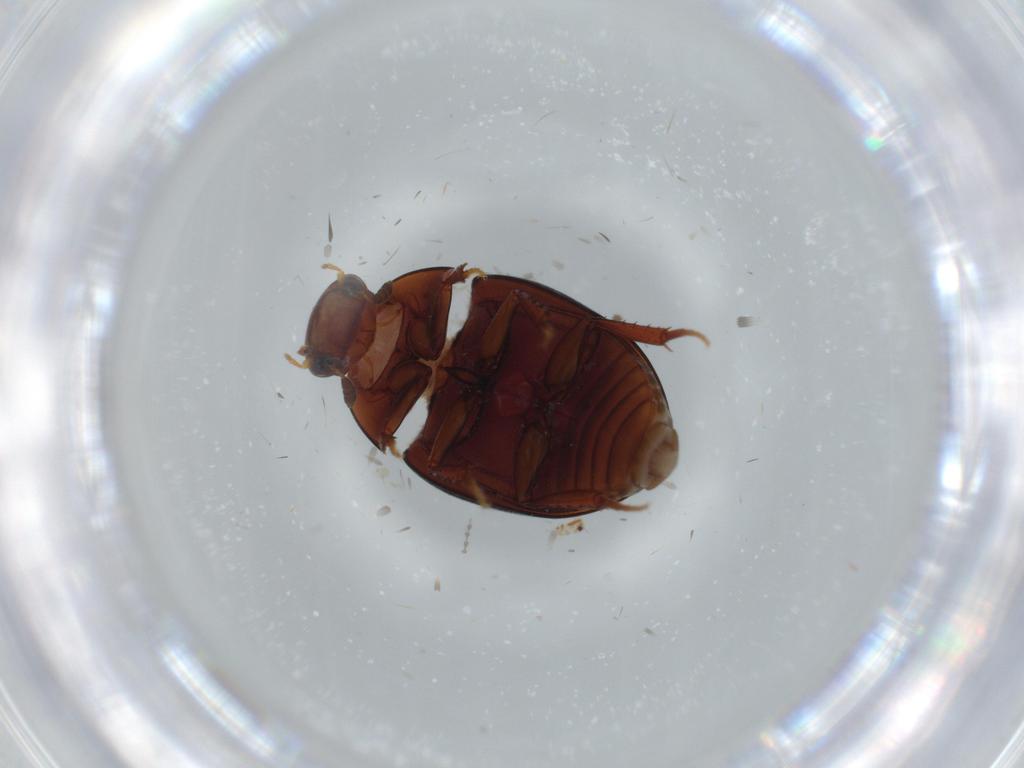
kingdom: Animalia
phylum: Arthropoda
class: Insecta
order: Coleoptera
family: Hydrophilidae
